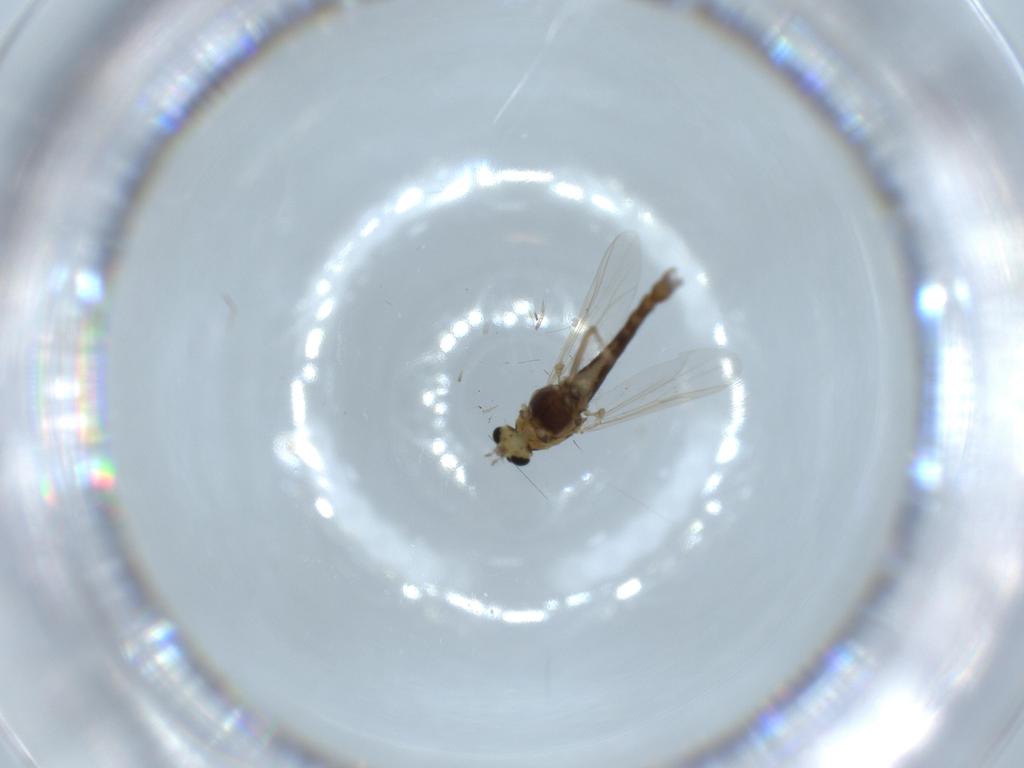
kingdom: Animalia
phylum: Arthropoda
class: Insecta
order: Diptera
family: Chironomidae
